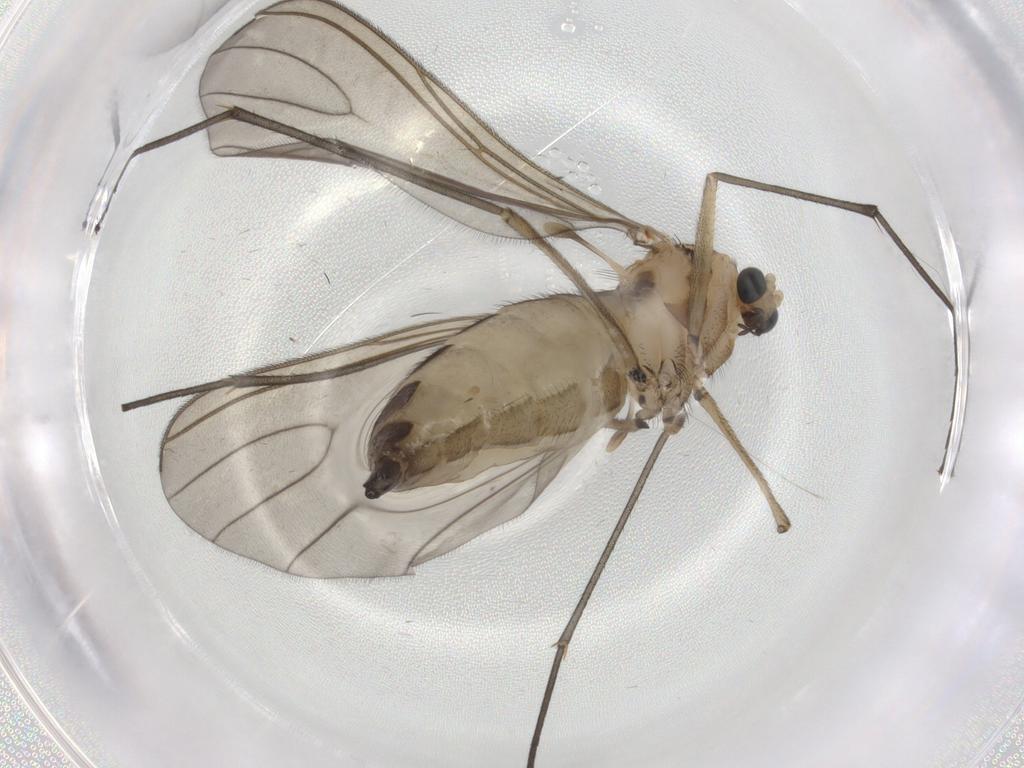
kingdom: Animalia
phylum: Arthropoda
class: Insecta
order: Diptera
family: Sciaridae
